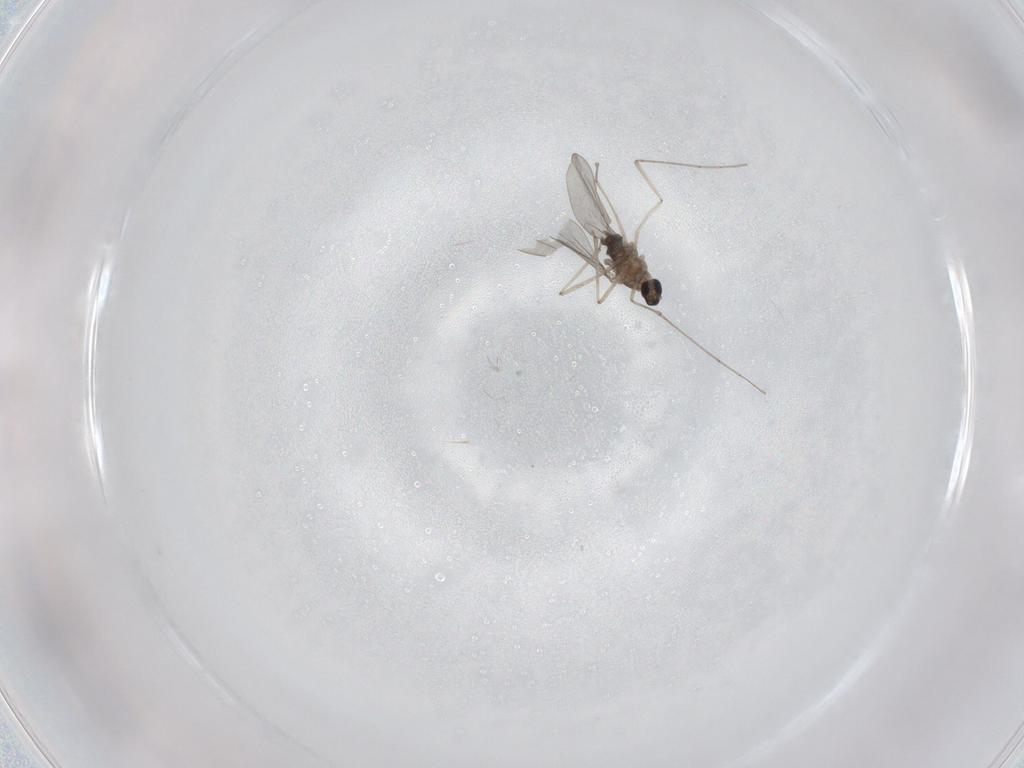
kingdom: Animalia
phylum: Arthropoda
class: Insecta
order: Diptera
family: Cecidomyiidae
